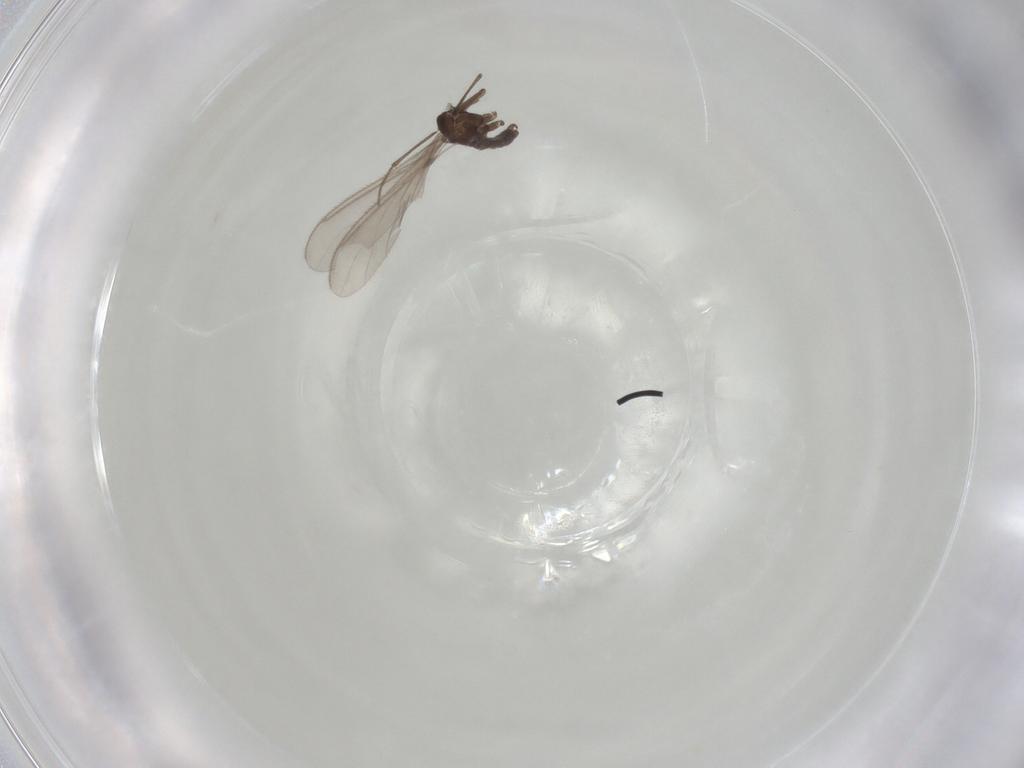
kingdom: Animalia
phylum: Arthropoda
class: Insecta
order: Diptera
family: Sciaridae
